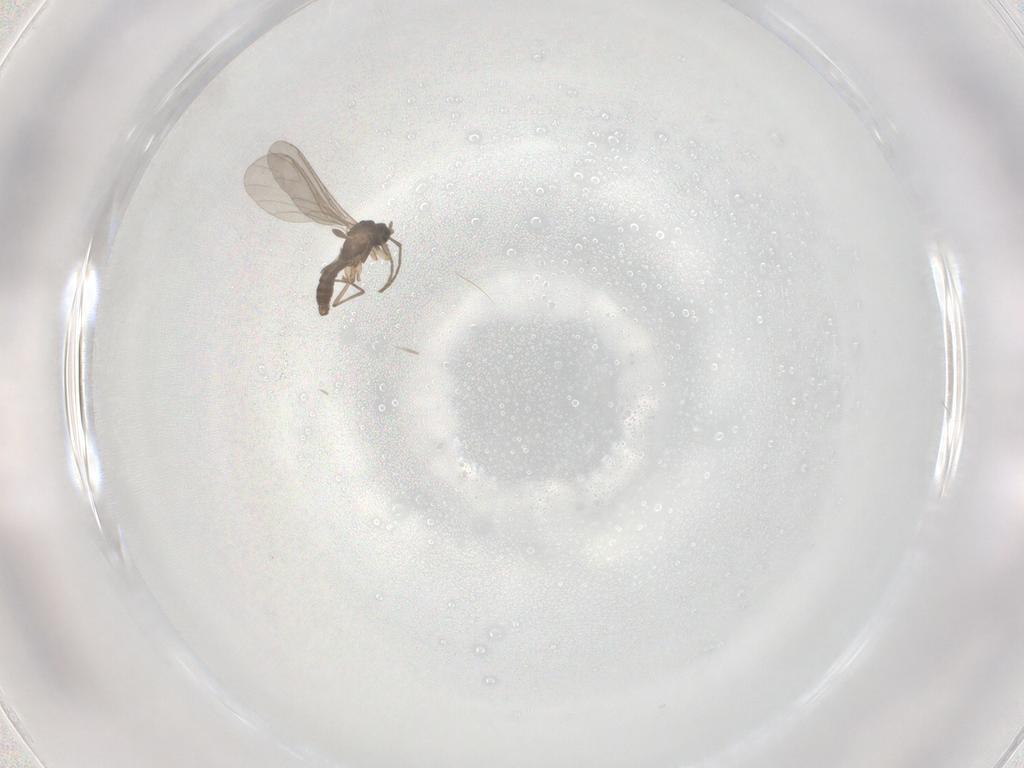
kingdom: Animalia
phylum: Arthropoda
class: Insecta
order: Diptera
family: Sciaridae
